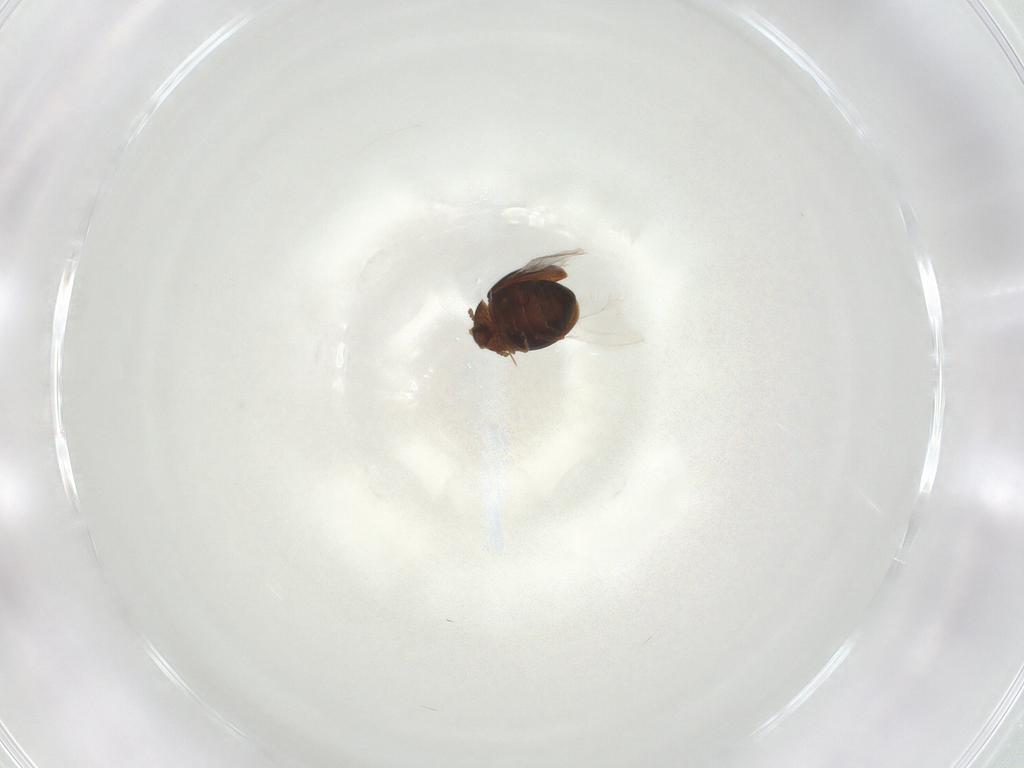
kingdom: Animalia
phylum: Arthropoda
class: Insecta
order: Coleoptera
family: Corylophidae
